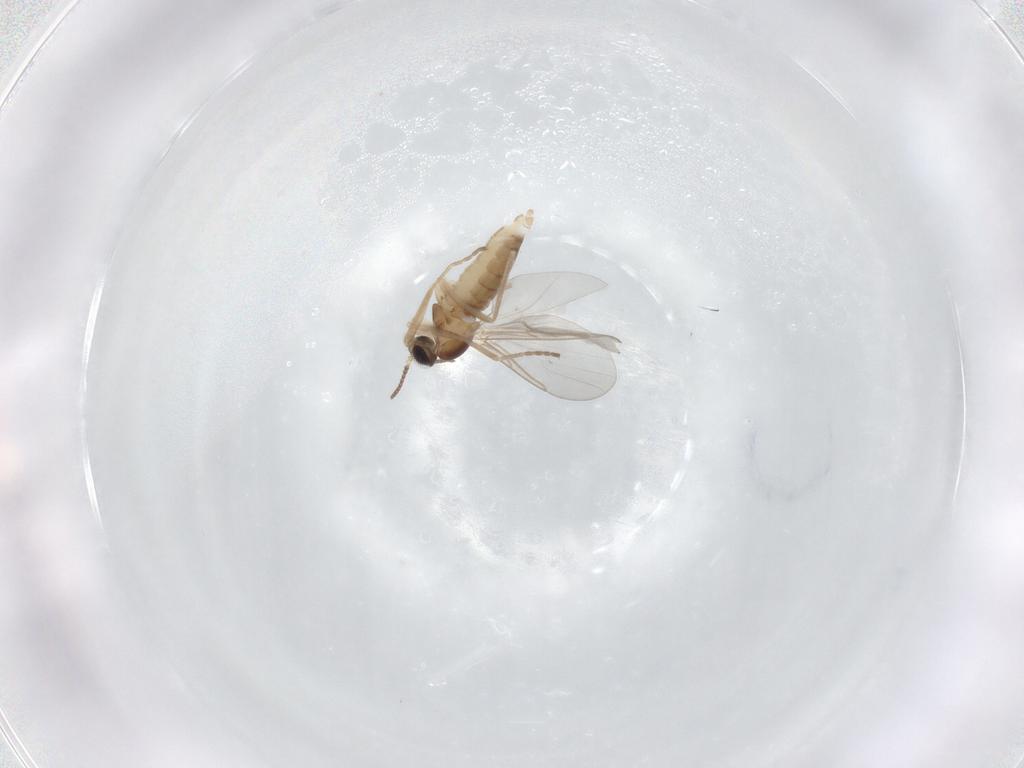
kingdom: Animalia
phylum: Arthropoda
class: Insecta
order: Diptera
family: Cecidomyiidae
